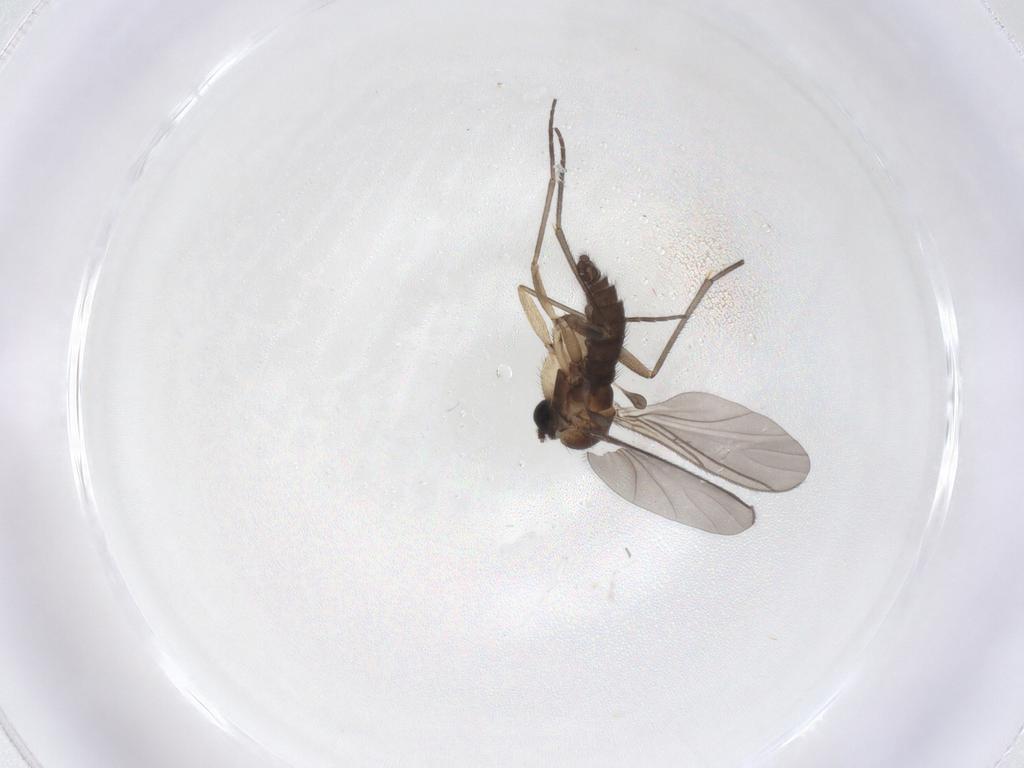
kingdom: Animalia
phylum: Arthropoda
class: Insecta
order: Diptera
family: Sciaridae
